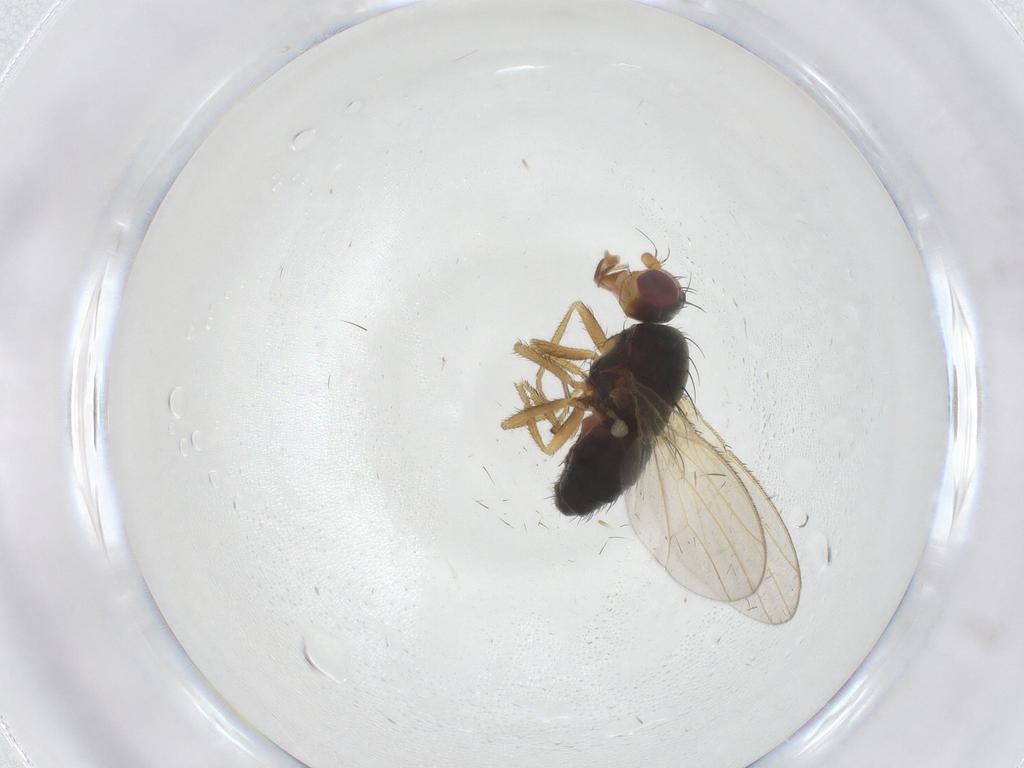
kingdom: Animalia
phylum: Arthropoda
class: Insecta
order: Diptera
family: Heleomyzidae
